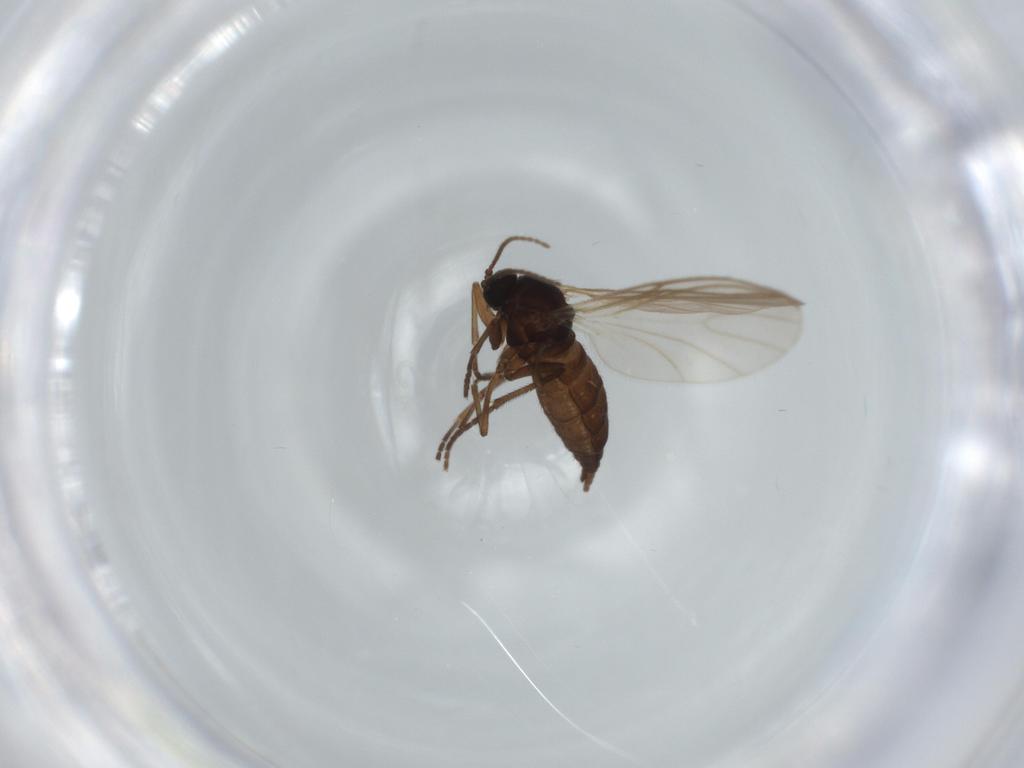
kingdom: Animalia
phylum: Arthropoda
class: Insecta
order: Diptera
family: Sciaridae
